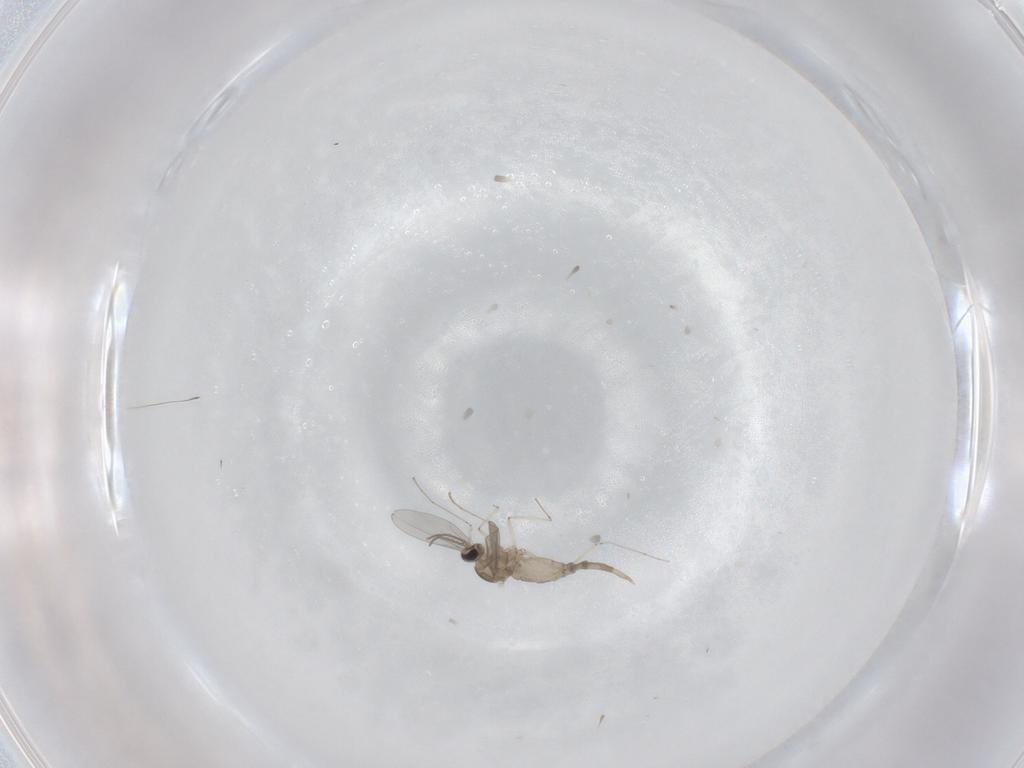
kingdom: Animalia
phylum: Arthropoda
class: Insecta
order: Diptera
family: Cecidomyiidae
